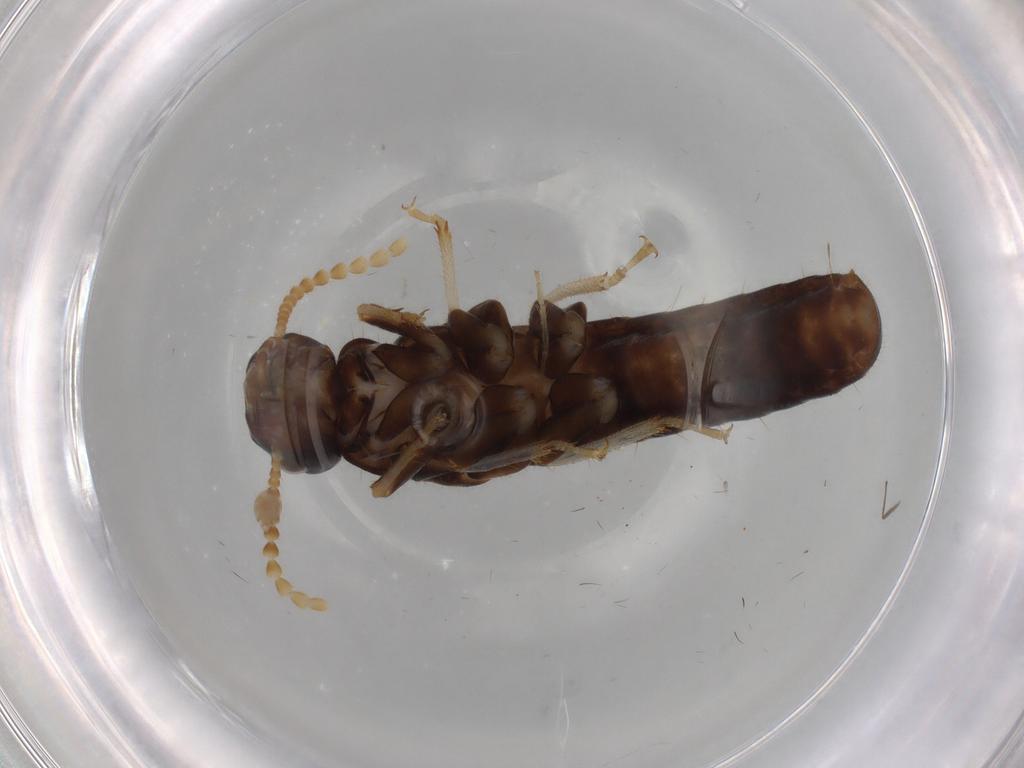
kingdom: Animalia
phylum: Arthropoda
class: Insecta
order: Blattodea
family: Kalotermitidae
